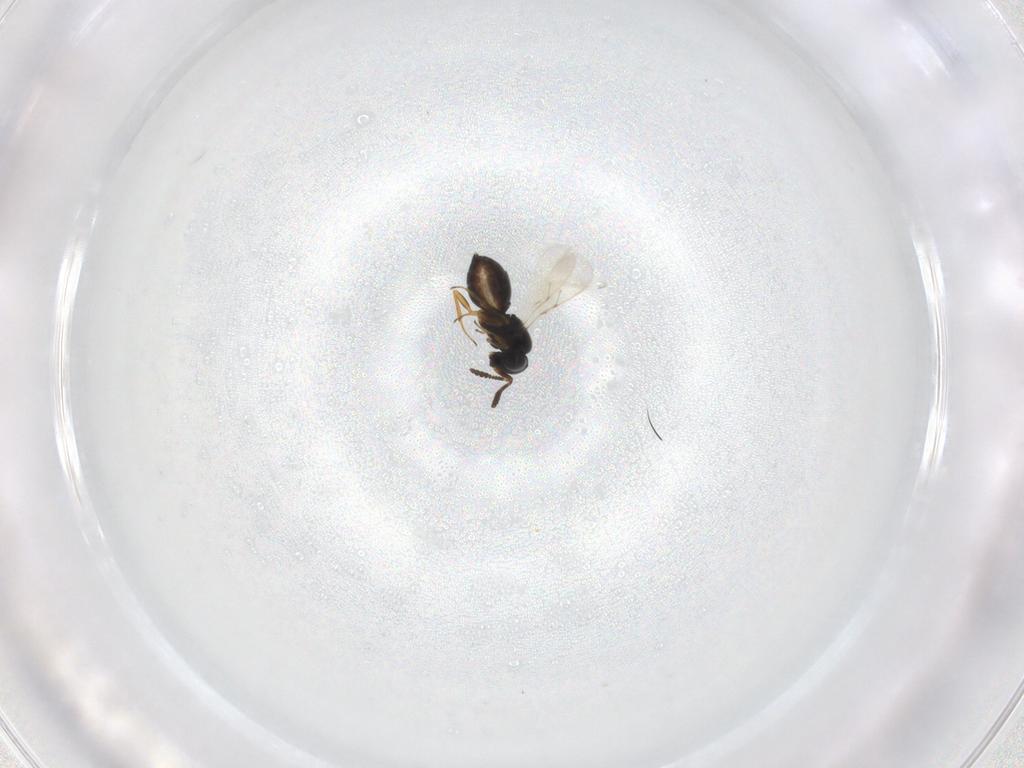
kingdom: Animalia
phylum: Arthropoda
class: Insecta
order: Hymenoptera
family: Scelionidae
